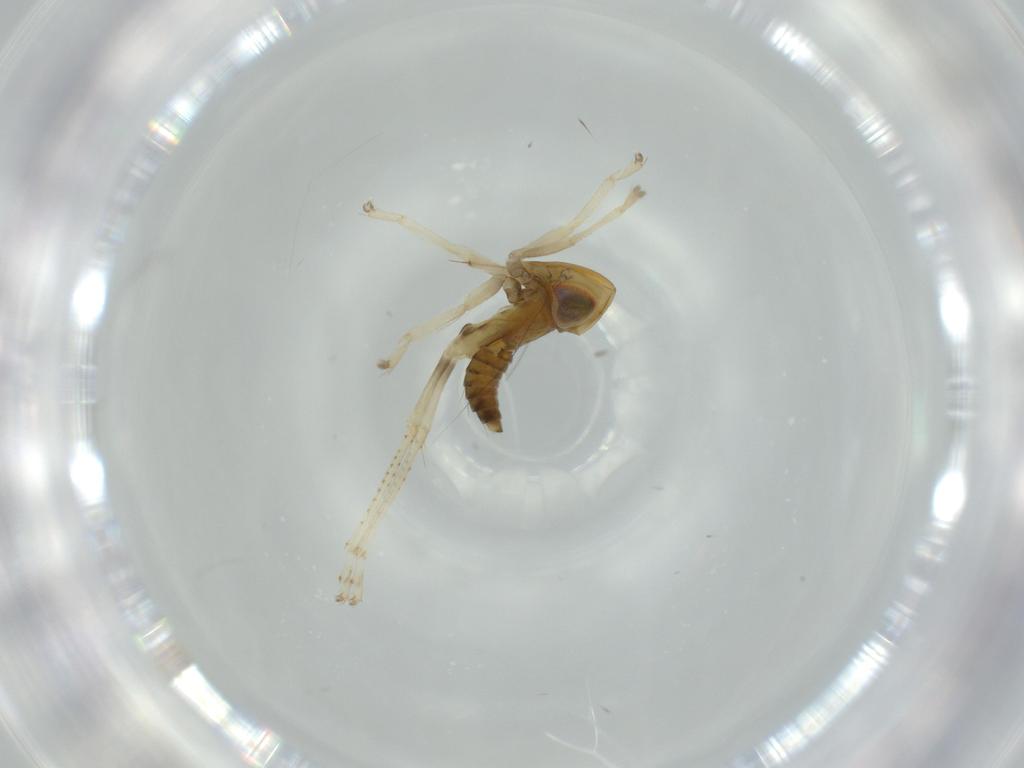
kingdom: Animalia
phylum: Arthropoda
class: Insecta
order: Hemiptera
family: Cicadellidae
